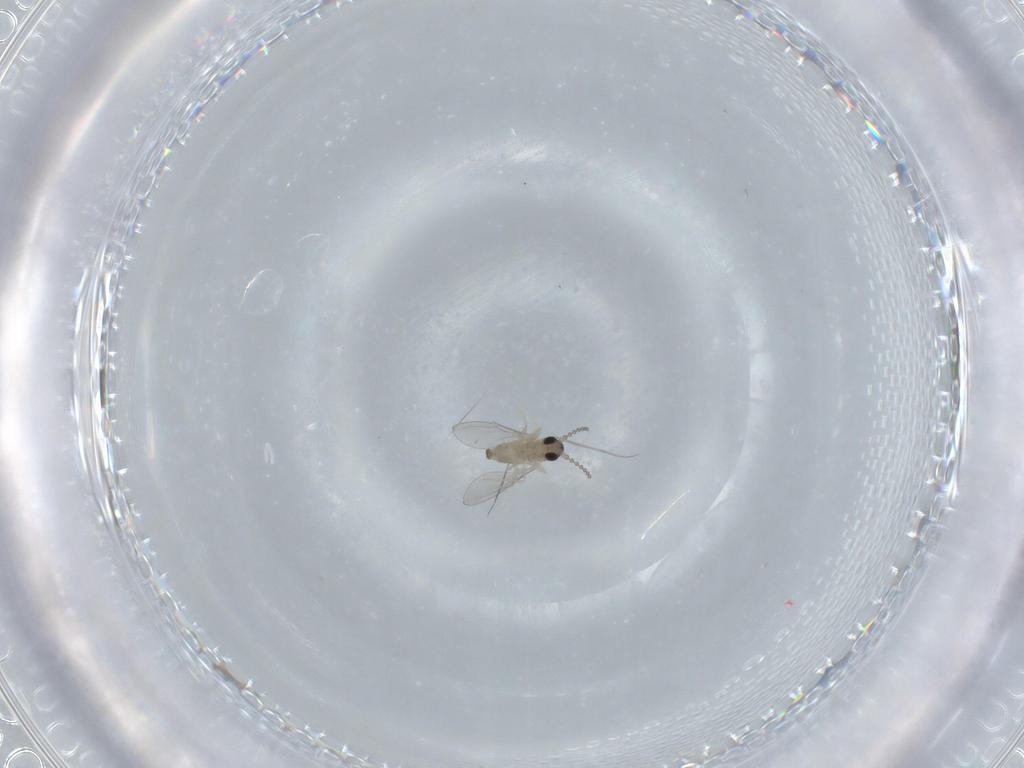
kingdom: Animalia
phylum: Arthropoda
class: Insecta
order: Diptera
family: Cecidomyiidae
